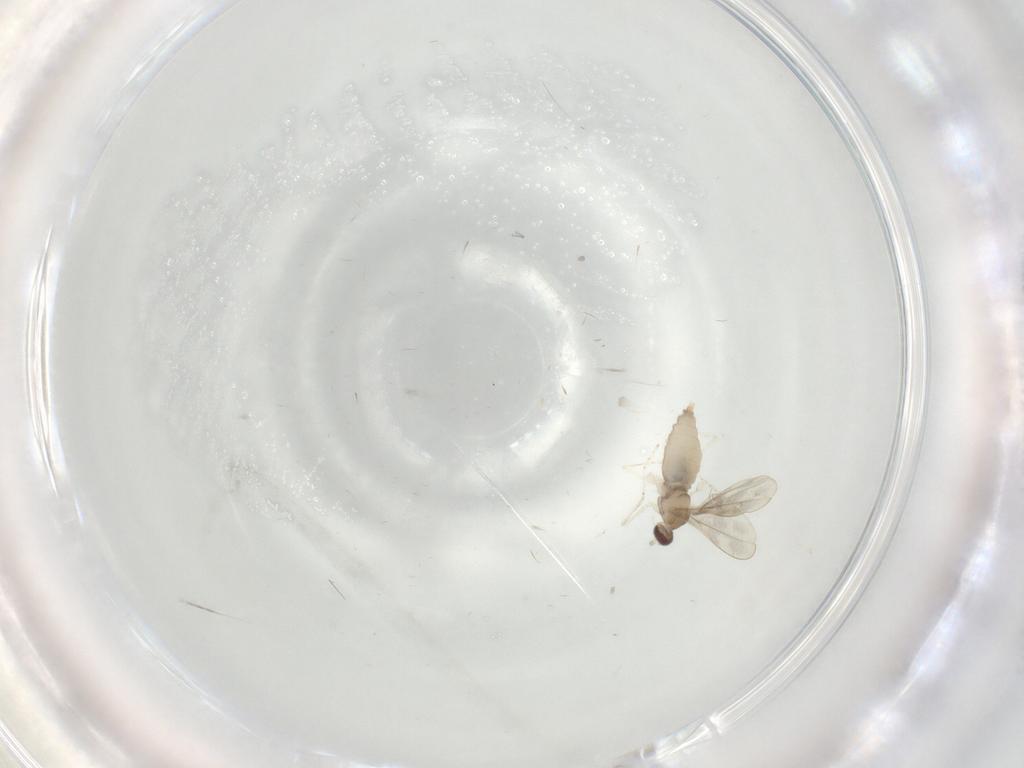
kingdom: Animalia
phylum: Arthropoda
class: Insecta
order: Diptera
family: Cecidomyiidae
